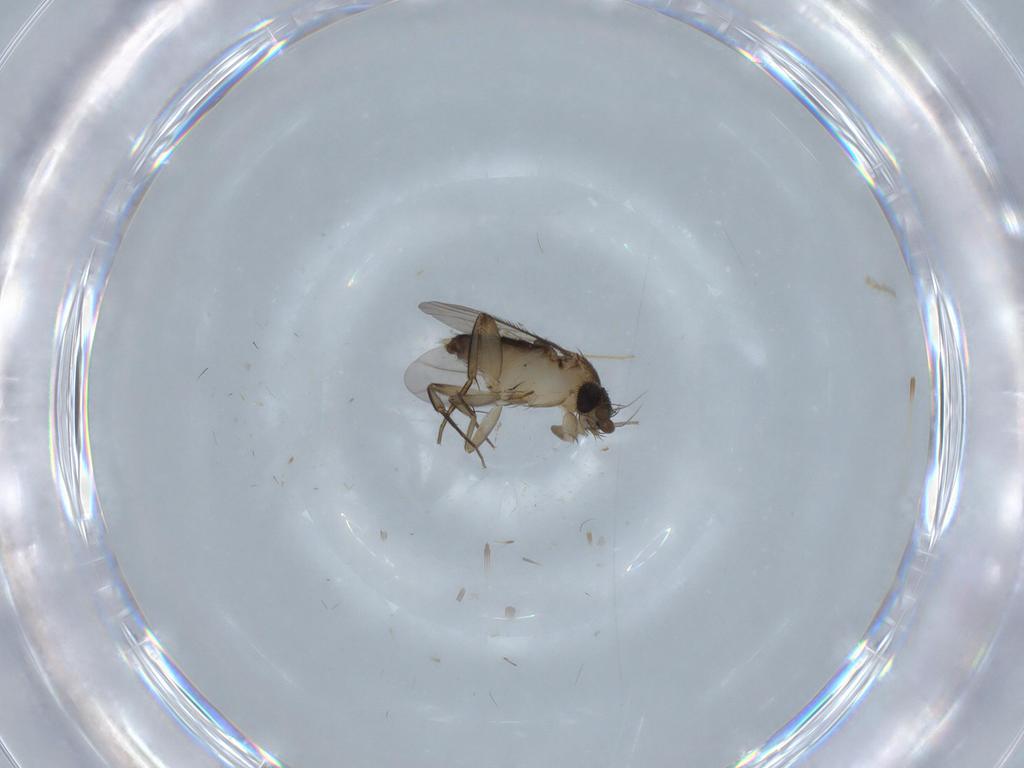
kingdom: Animalia
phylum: Arthropoda
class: Insecta
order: Diptera
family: Phoridae
